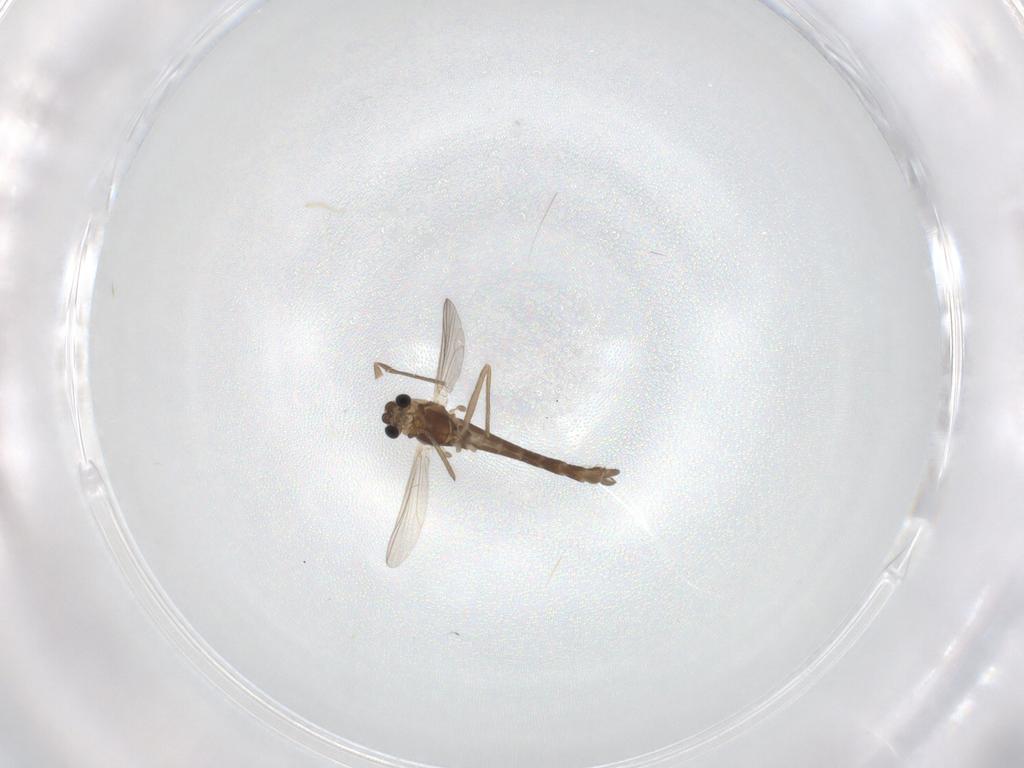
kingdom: Animalia
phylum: Arthropoda
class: Insecta
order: Diptera
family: Chironomidae
